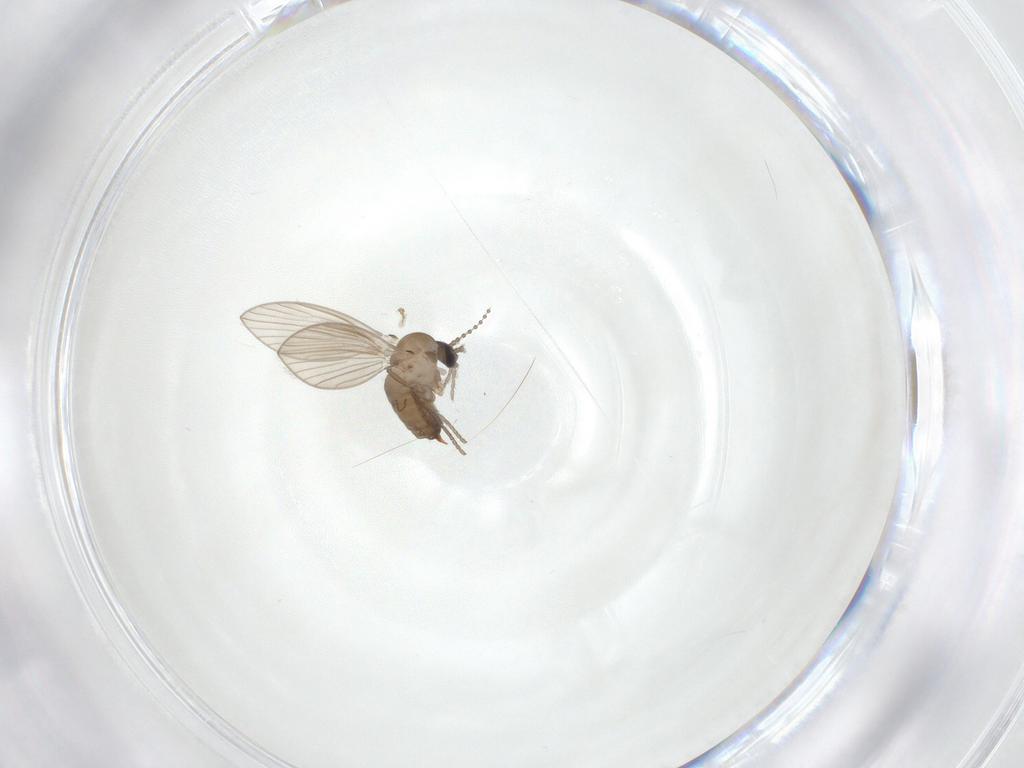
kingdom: Animalia
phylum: Arthropoda
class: Insecta
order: Diptera
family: Psychodidae
